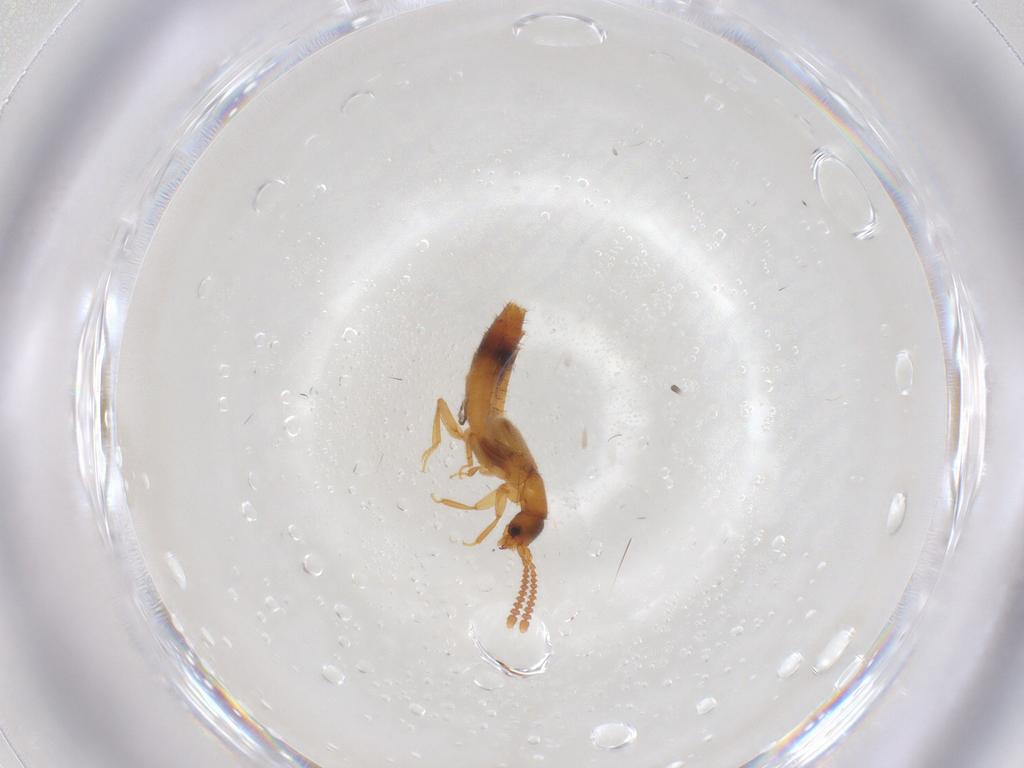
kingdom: Animalia
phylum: Arthropoda
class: Insecta
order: Coleoptera
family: Staphylinidae
